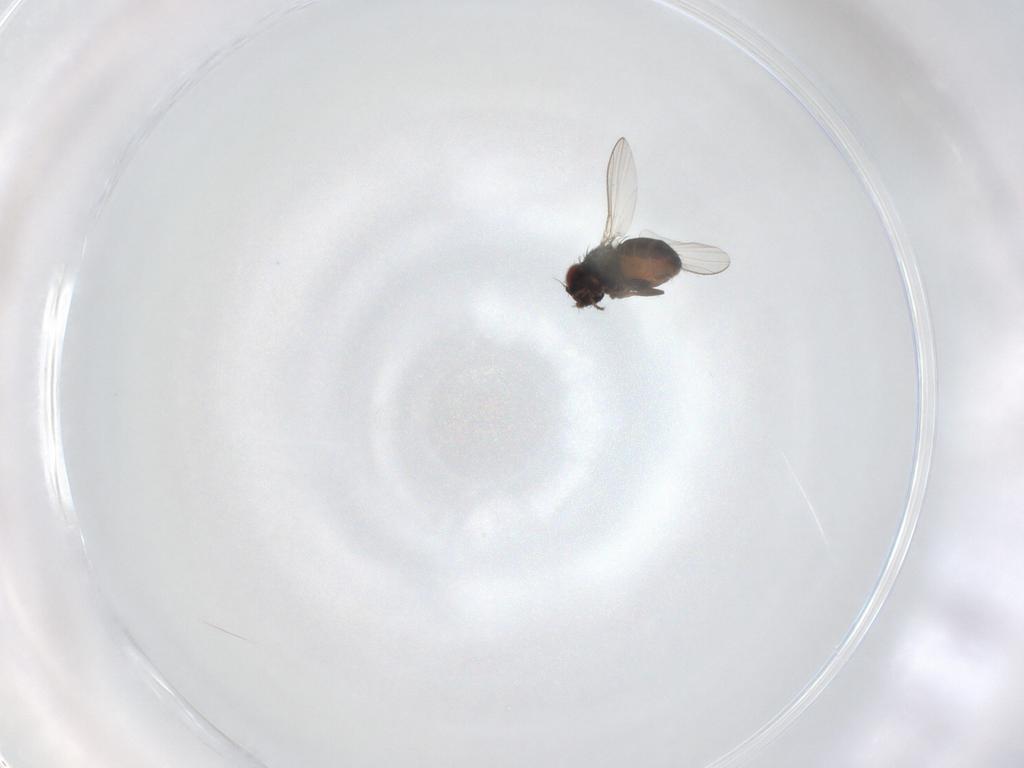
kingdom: Animalia
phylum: Arthropoda
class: Insecta
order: Diptera
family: Carnidae
